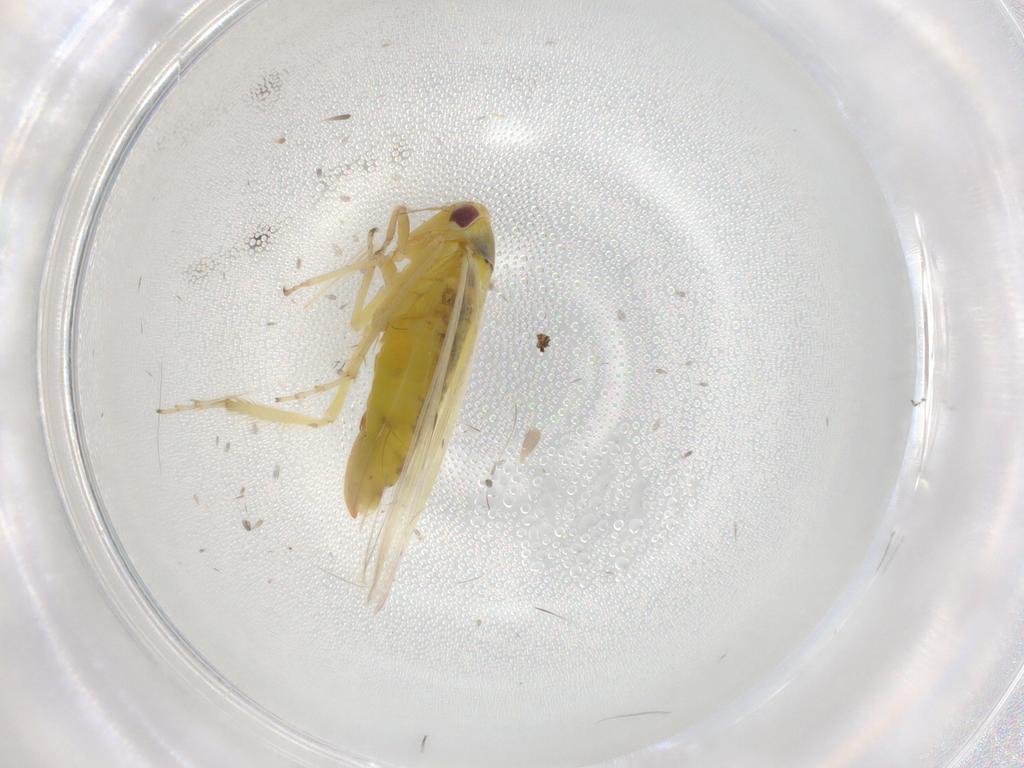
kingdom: Animalia
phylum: Arthropoda
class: Insecta
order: Hemiptera
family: Cicadellidae
